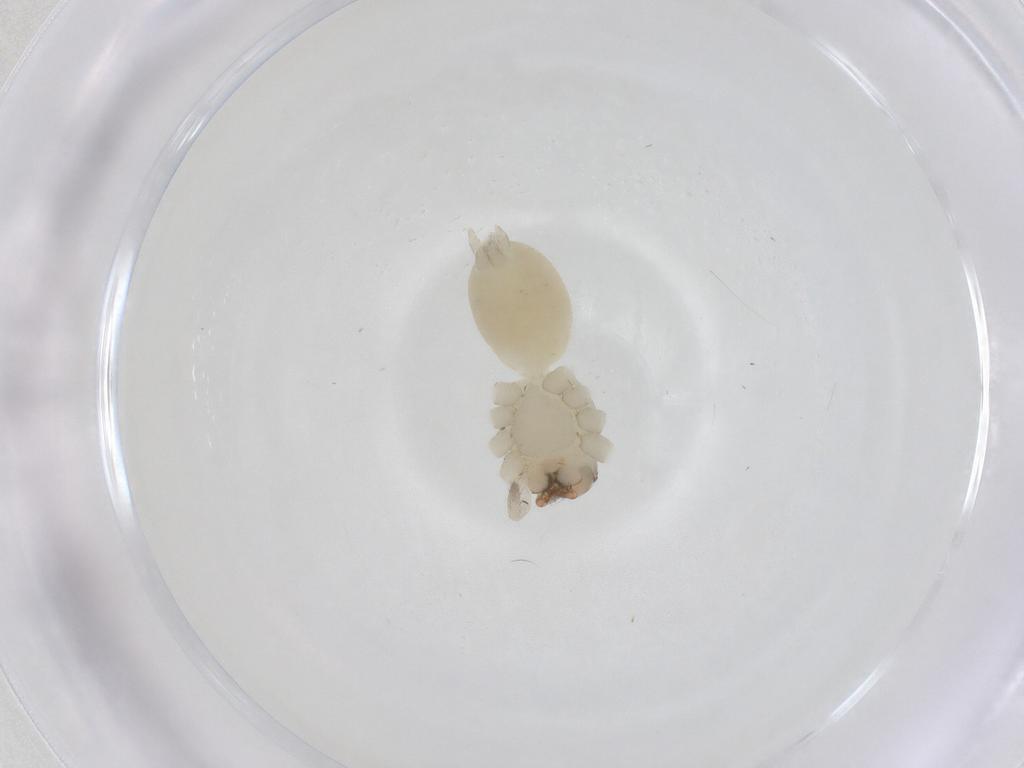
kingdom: Animalia
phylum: Arthropoda
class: Arachnida
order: Araneae
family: Cheiracanthiidae
